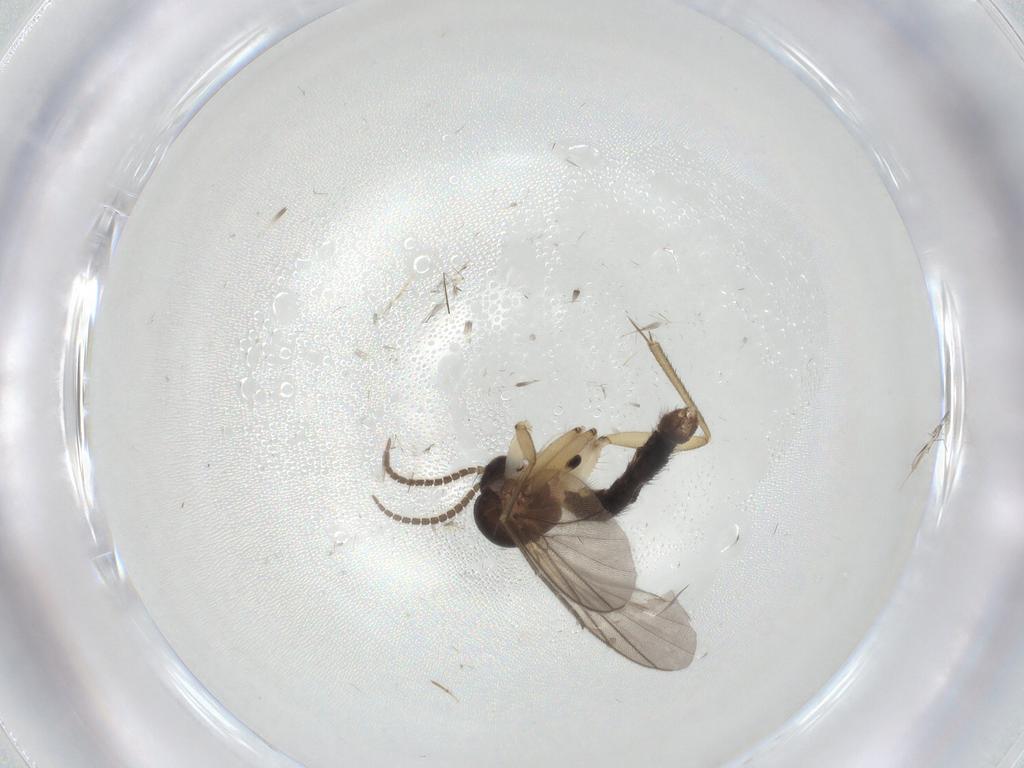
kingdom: Animalia
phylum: Arthropoda
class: Insecta
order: Diptera
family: Mycetophilidae
